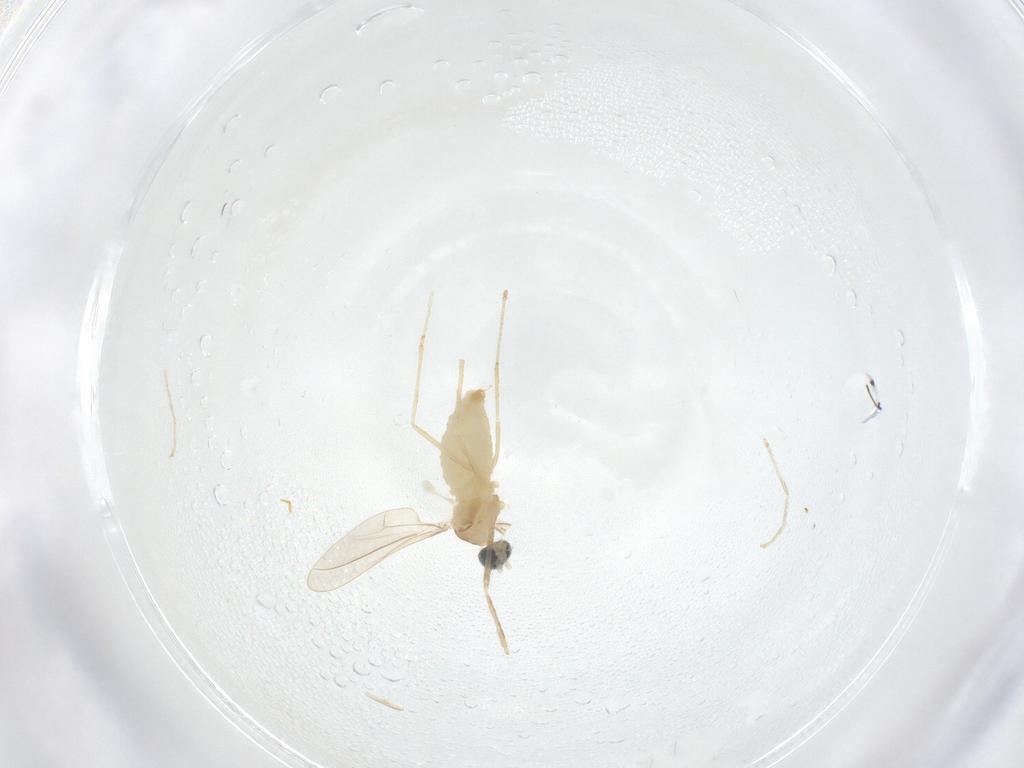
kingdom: Animalia
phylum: Arthropoda
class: Insecta
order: Diptera
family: Cecidomyiidae
